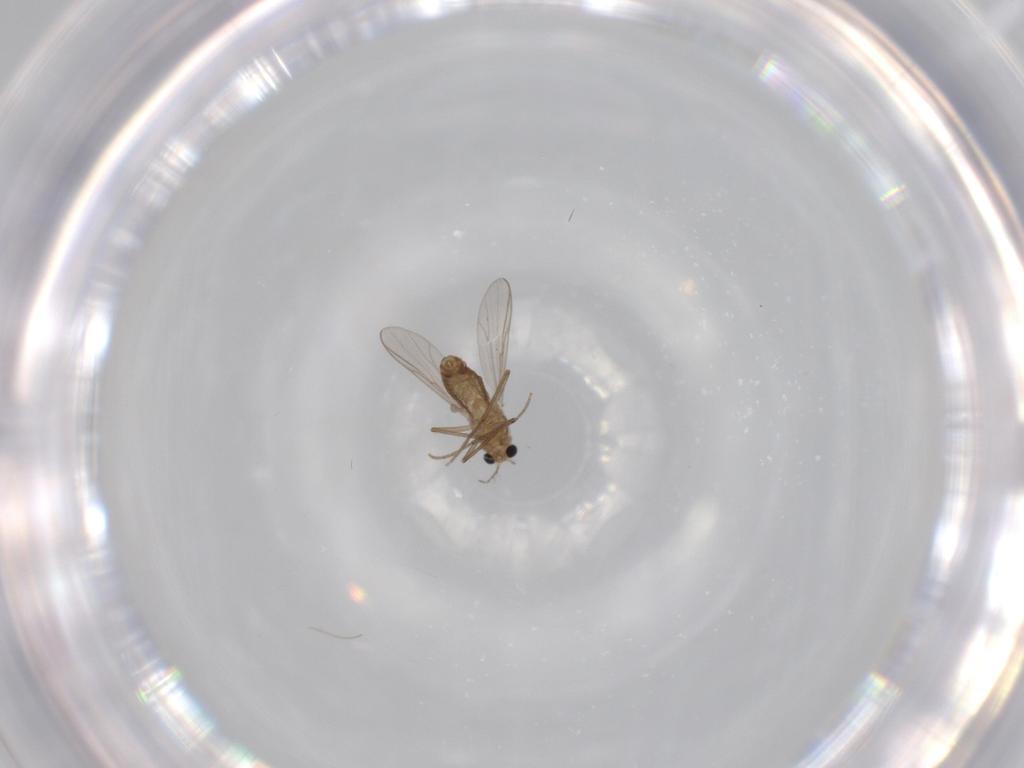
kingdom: Animalia
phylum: Arthropoda
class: Insecta
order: Diptera
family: Chironomidae
